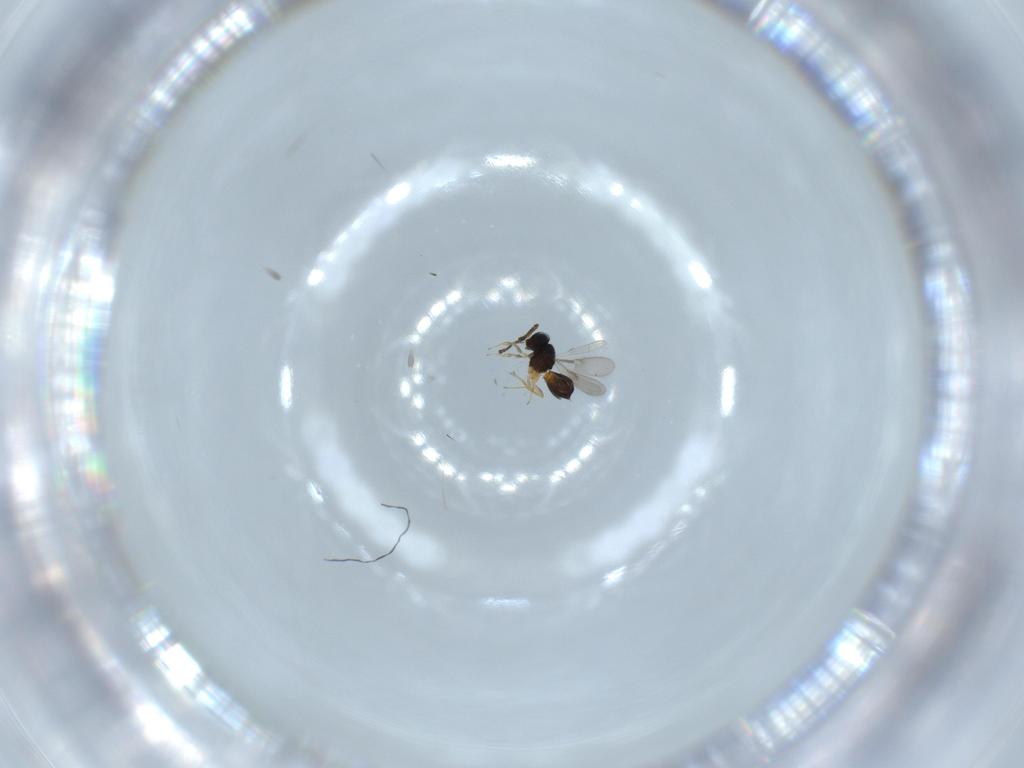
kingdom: Animalia
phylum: Arthropoda
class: Insecta
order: Hymenoptera
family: Scelionidae
